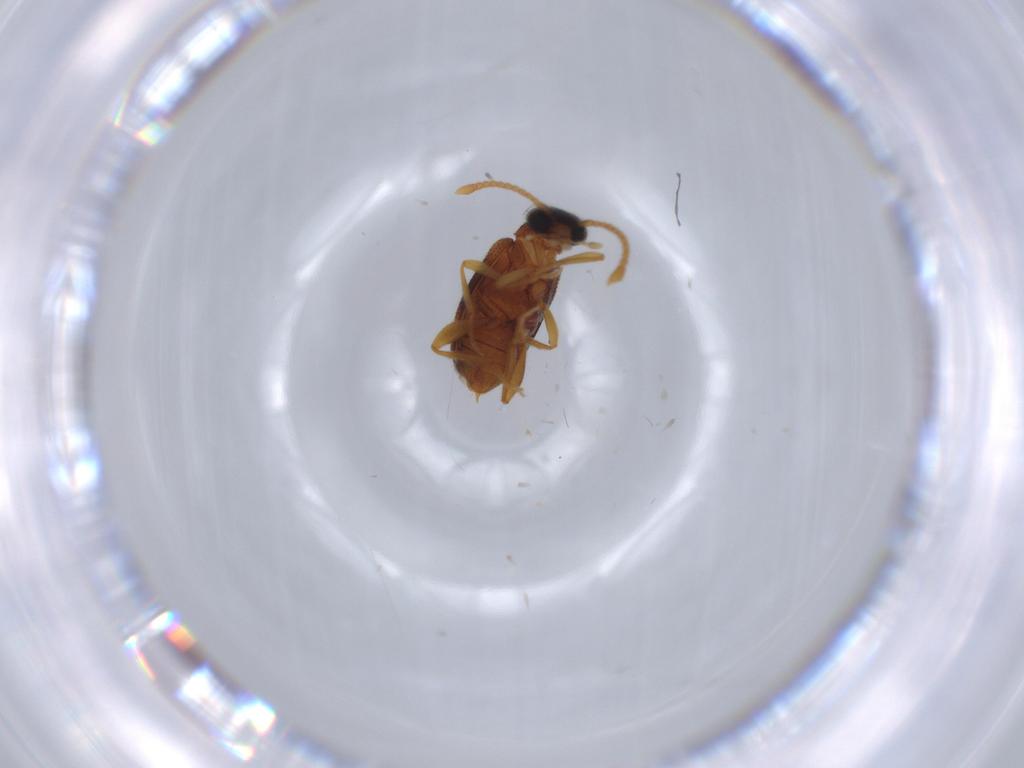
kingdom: Animalia
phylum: Arthropoda
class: Insecta
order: Coleoptera
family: Aderidae
